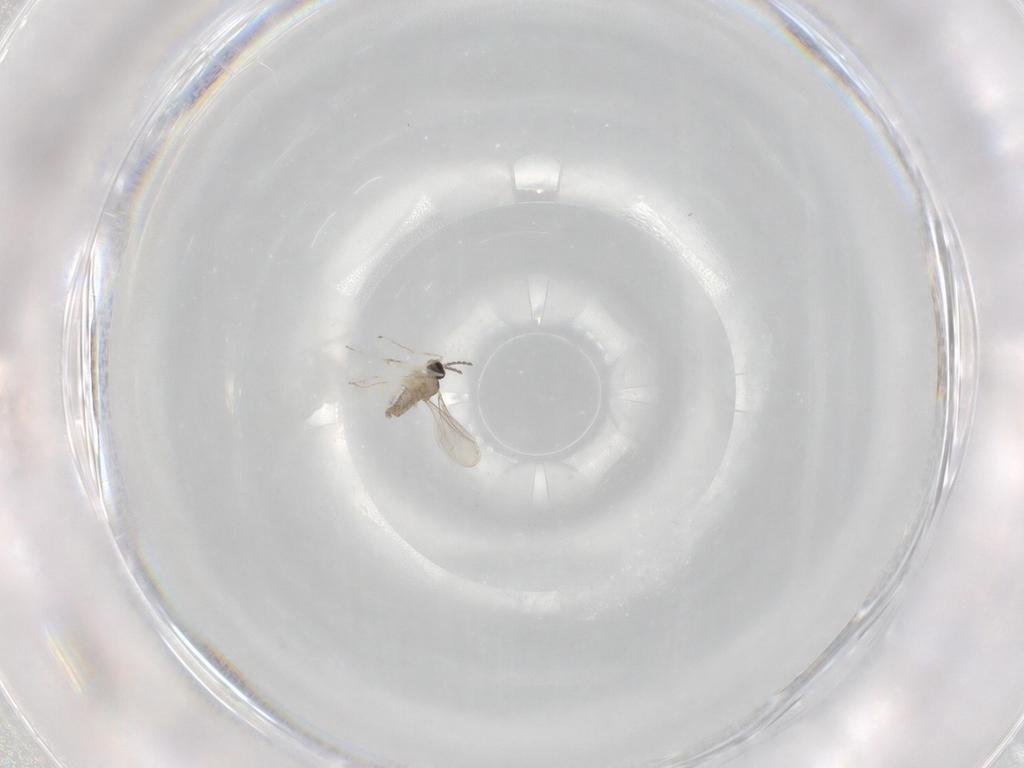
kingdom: Animalia
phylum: Arthropoda
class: Insecta
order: Diptera
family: Cecidomyiidae
